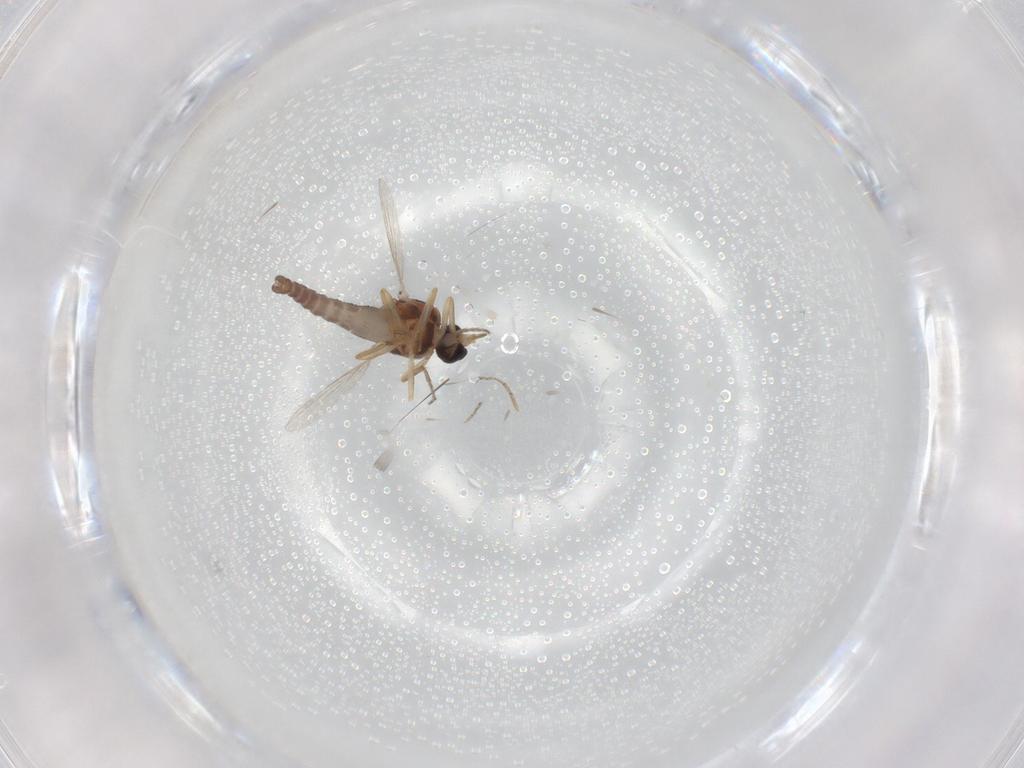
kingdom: Animalia
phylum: Arthropoda
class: Insecta
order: Diptera
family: Ceratopogonidae
